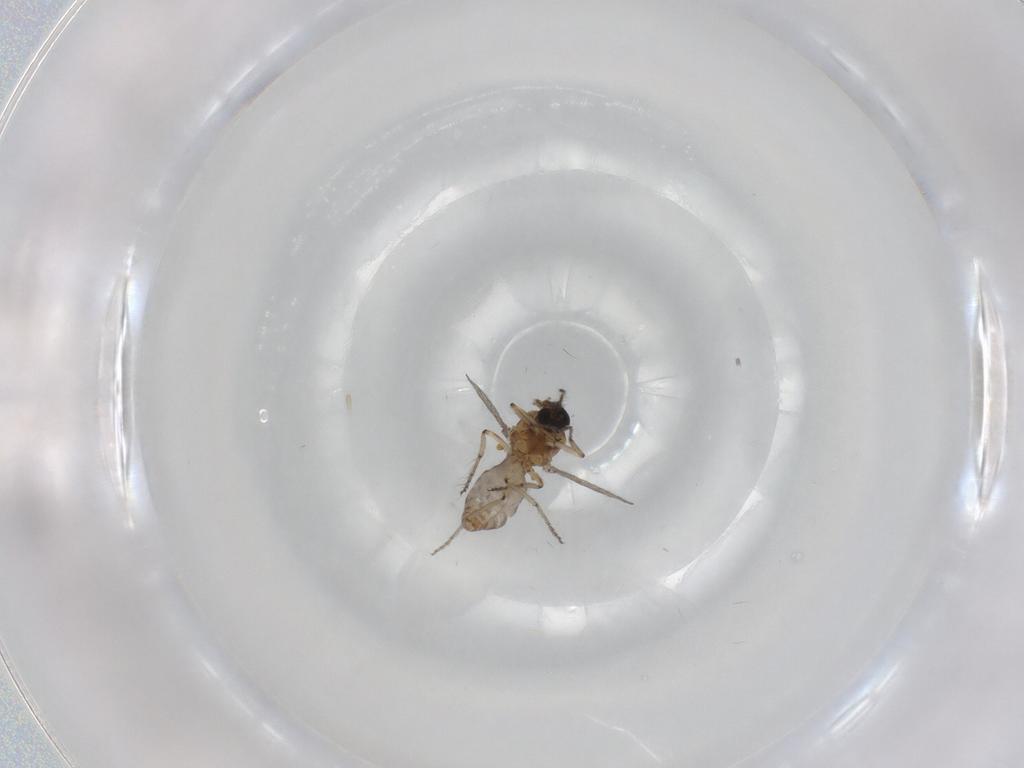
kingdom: Animalia
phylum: Arthropoda
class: Insecta
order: Diptera
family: Ceratopogonidae
